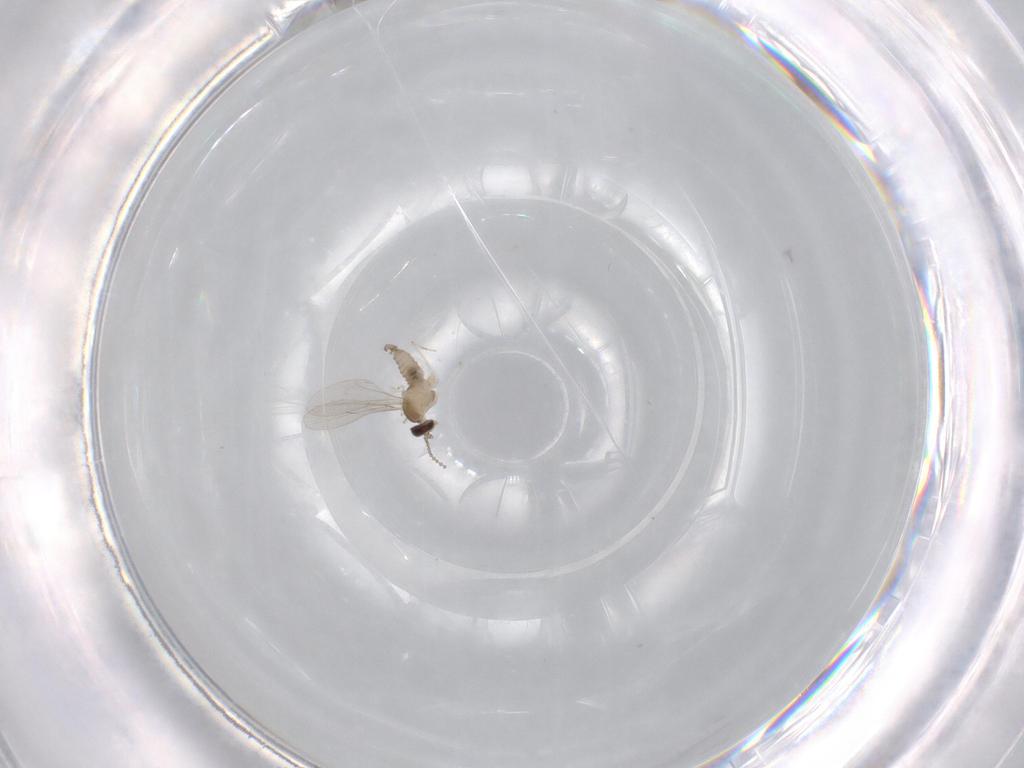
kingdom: Animalia
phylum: Arthropoda
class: Insecta
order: Diptera
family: Cecidomyiidae
